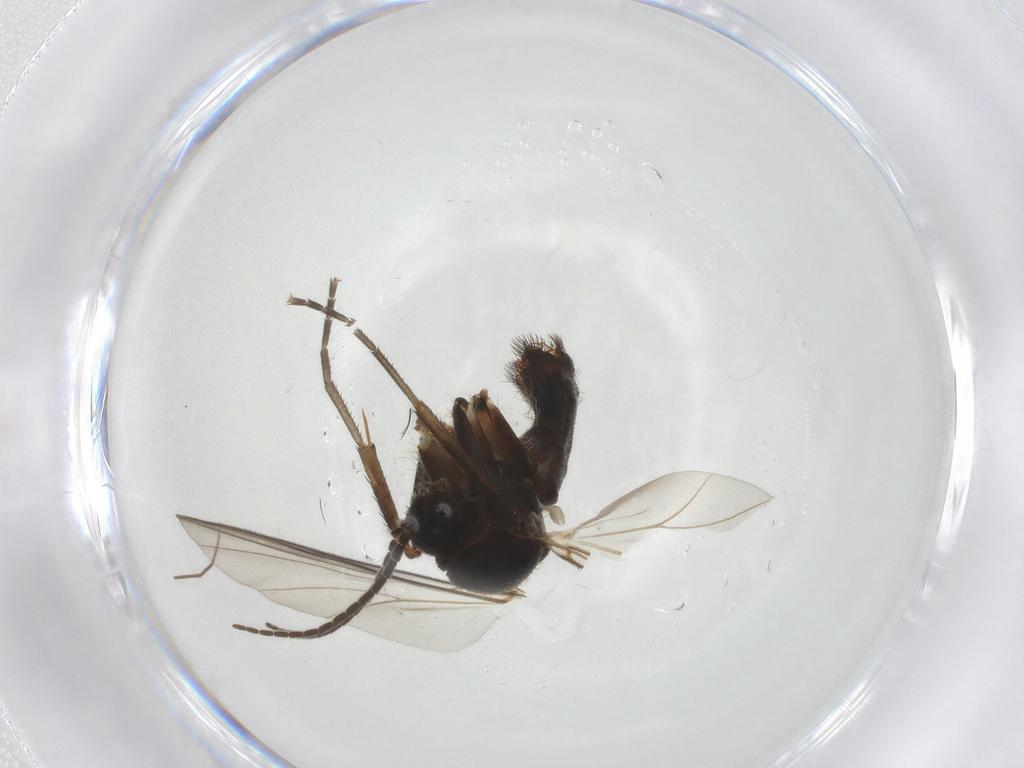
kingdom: Animalia
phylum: Arthropoda
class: Insecta
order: Diptera
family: Mycetophilidae
